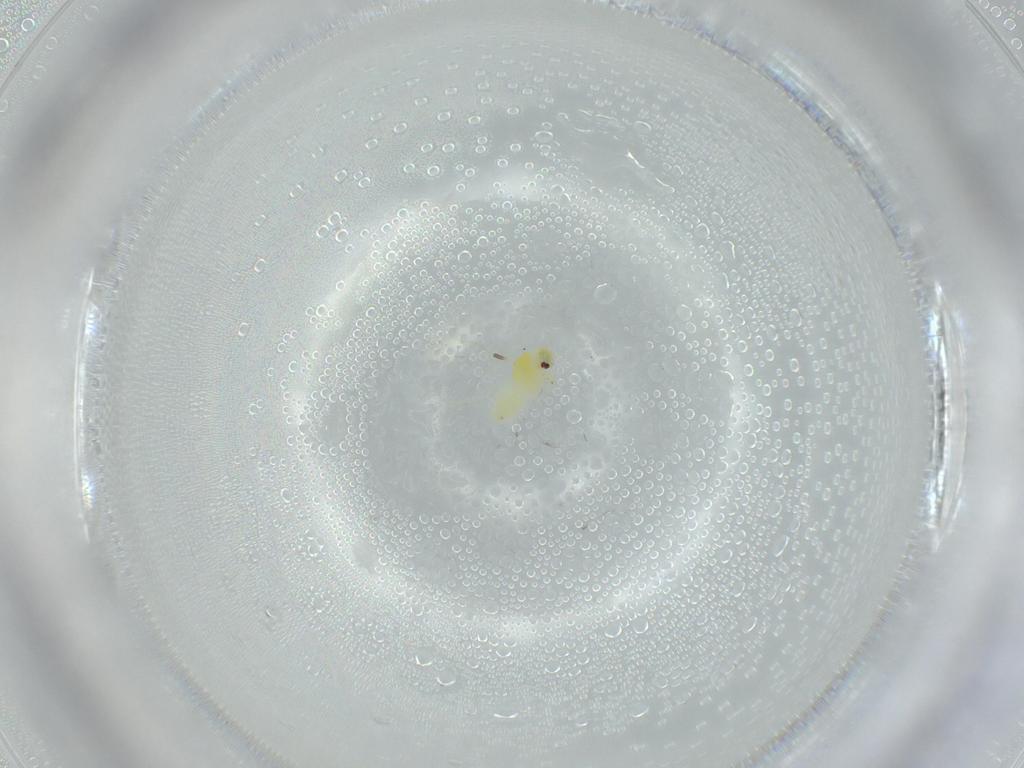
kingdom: Animalia
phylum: Arthropoda
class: Insecta
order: Hemiptera
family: Aleyrodidae
